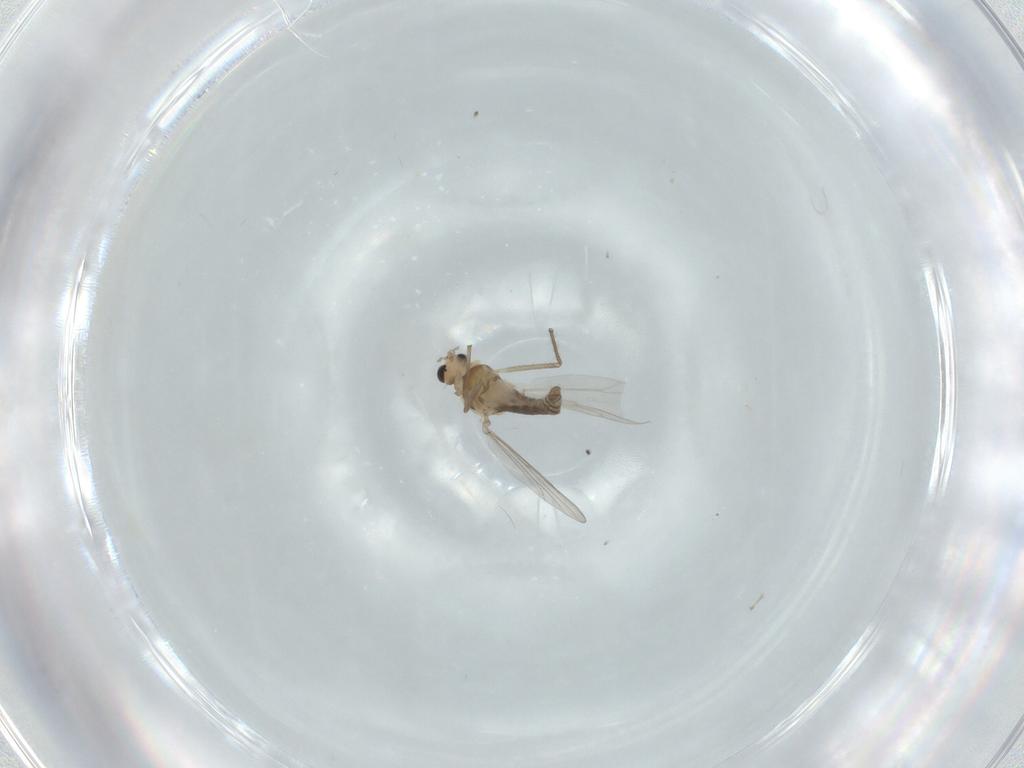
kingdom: Animalia
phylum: Arthropoda
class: Insecta
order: Diptera
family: Chironomidae
